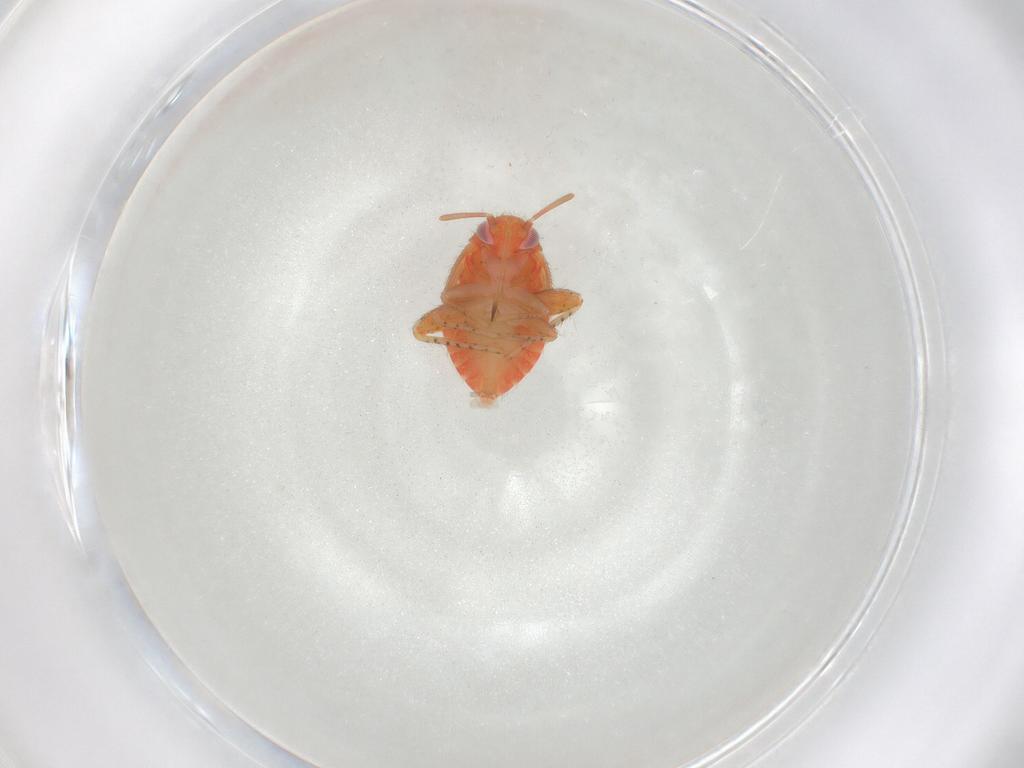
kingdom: Animalia
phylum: Arthropoda
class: Insecta
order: Hemiptera
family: Miridae
